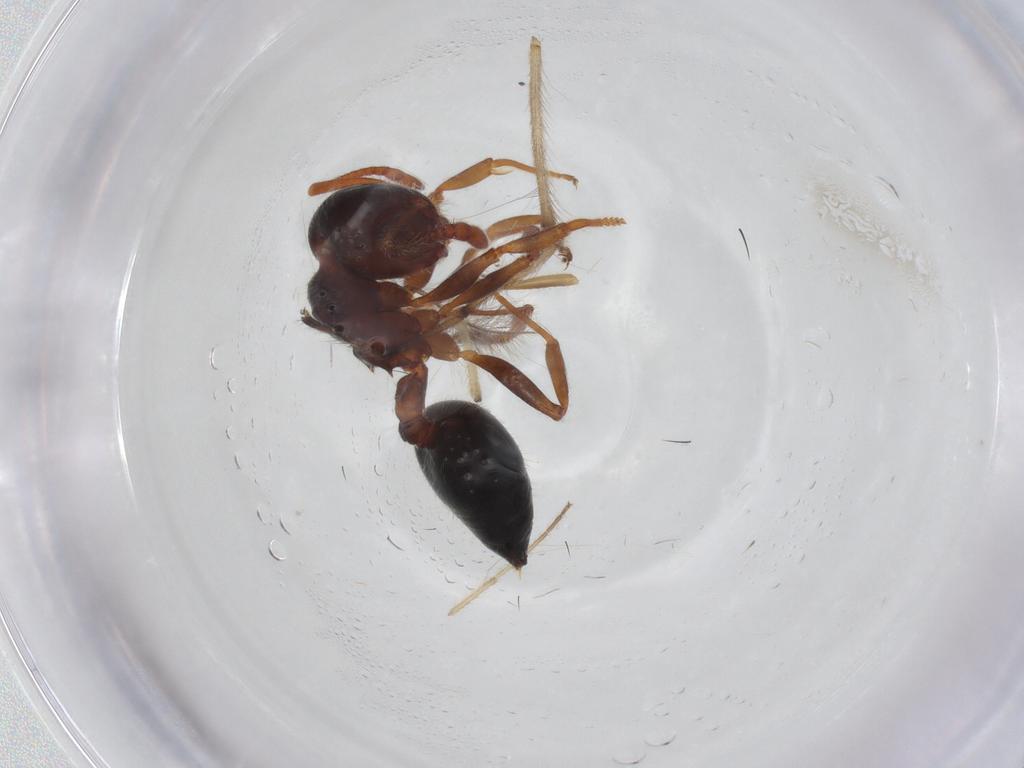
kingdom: Animalia
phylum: Arthropoda
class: Insecta
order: Hymenoptera
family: Formicidae
